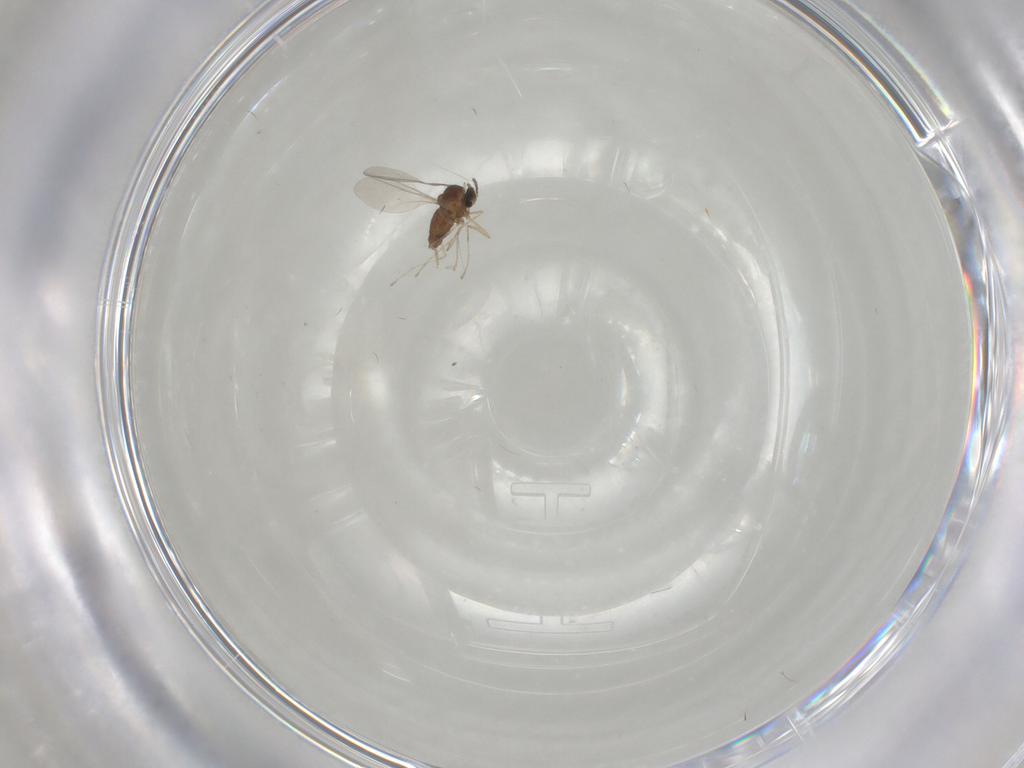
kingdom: Animalia
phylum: Arthropoda
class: Insecta
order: Diptera
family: Cecidomyiidae
